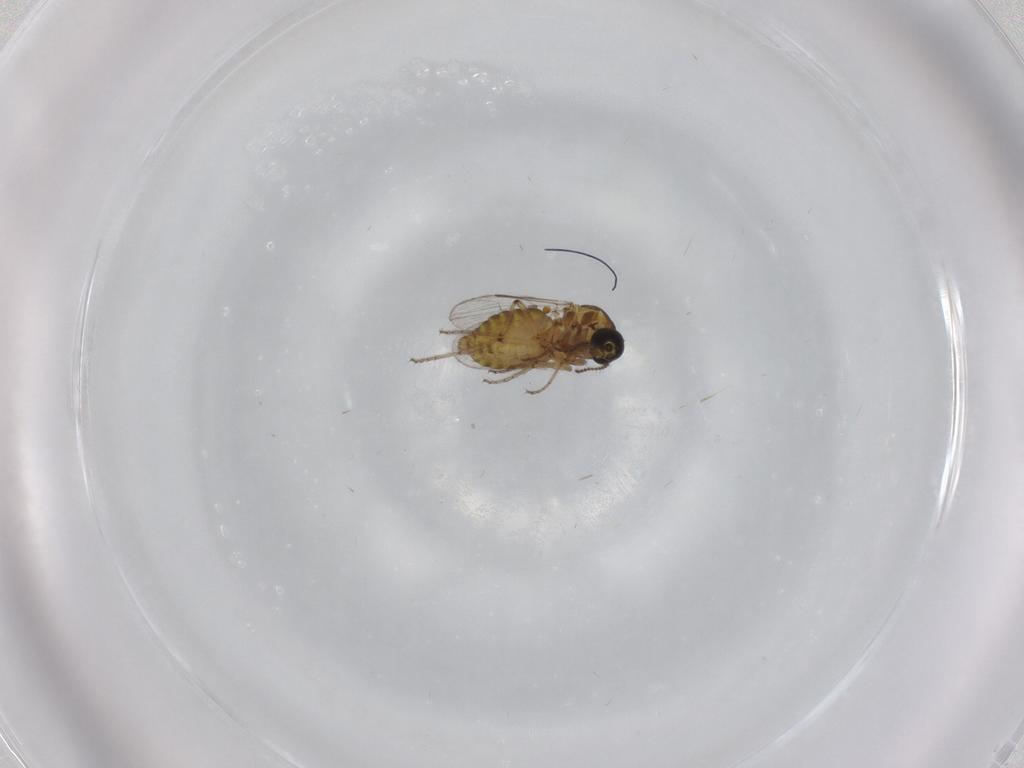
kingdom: Animalia
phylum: Arthropoda
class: Insecta
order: Diptera
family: Ceratopogonidae
